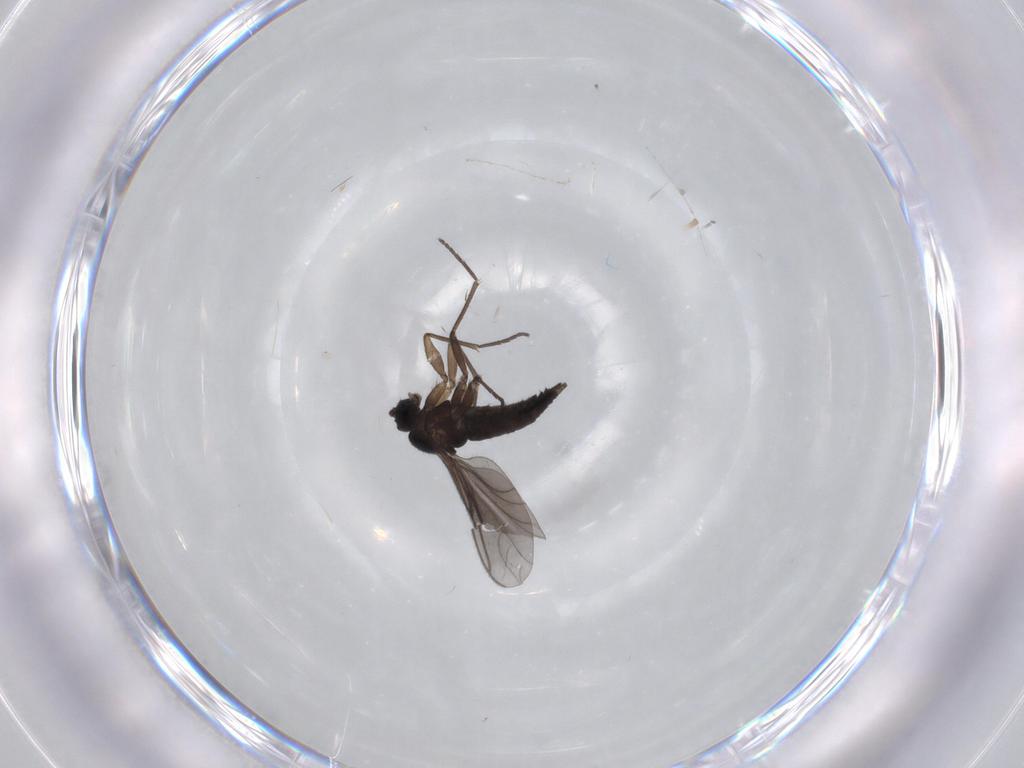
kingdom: Animalia
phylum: Arthropoda
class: Insecta
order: Diptera
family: Sciaridae
